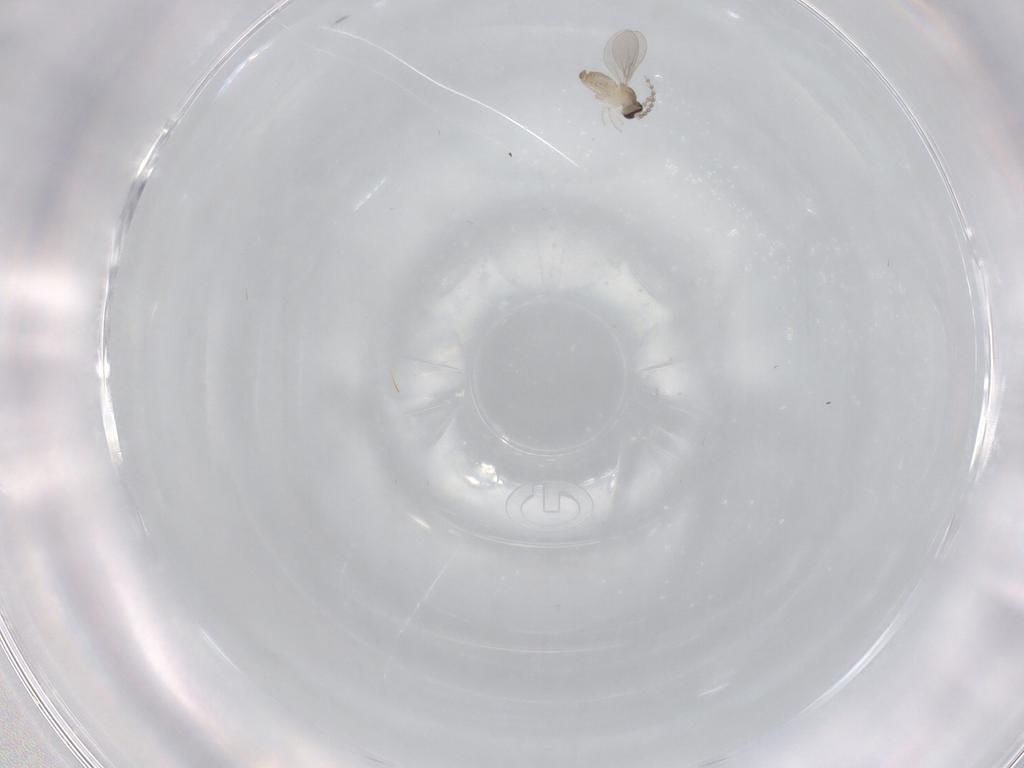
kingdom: Animalia
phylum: Arthropoda
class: Insecta
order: Diptera
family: Cecidomyiidae
